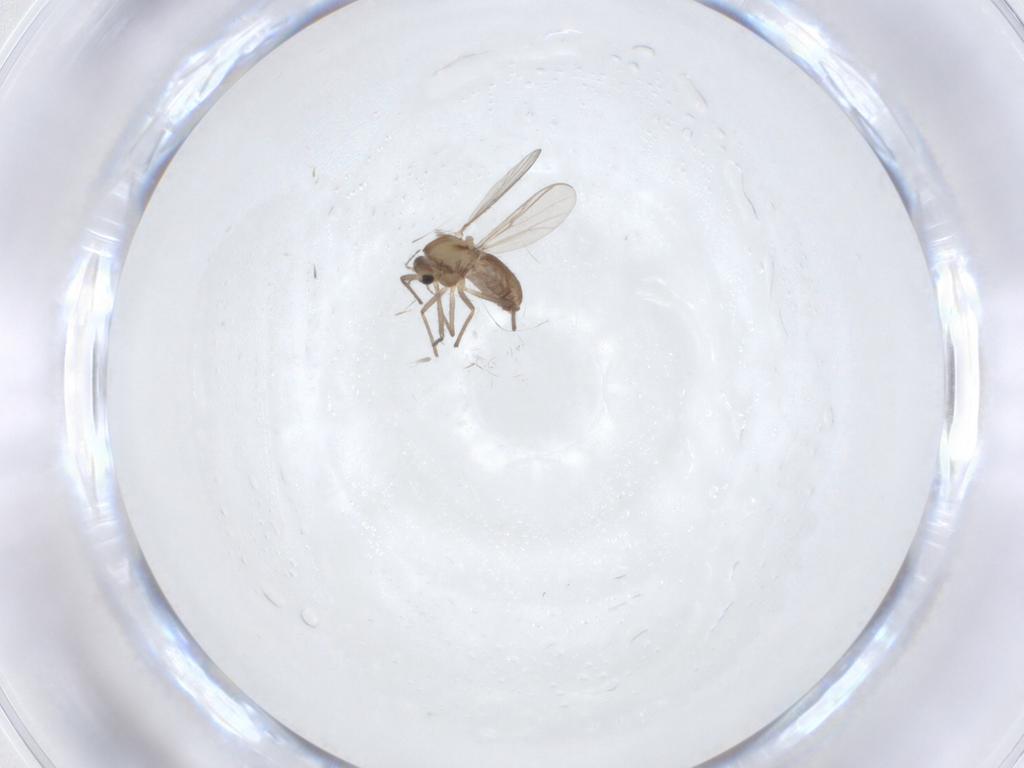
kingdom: Animalia
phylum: Arthropoda
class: Insecta
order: Diptera
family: Chironomidae
